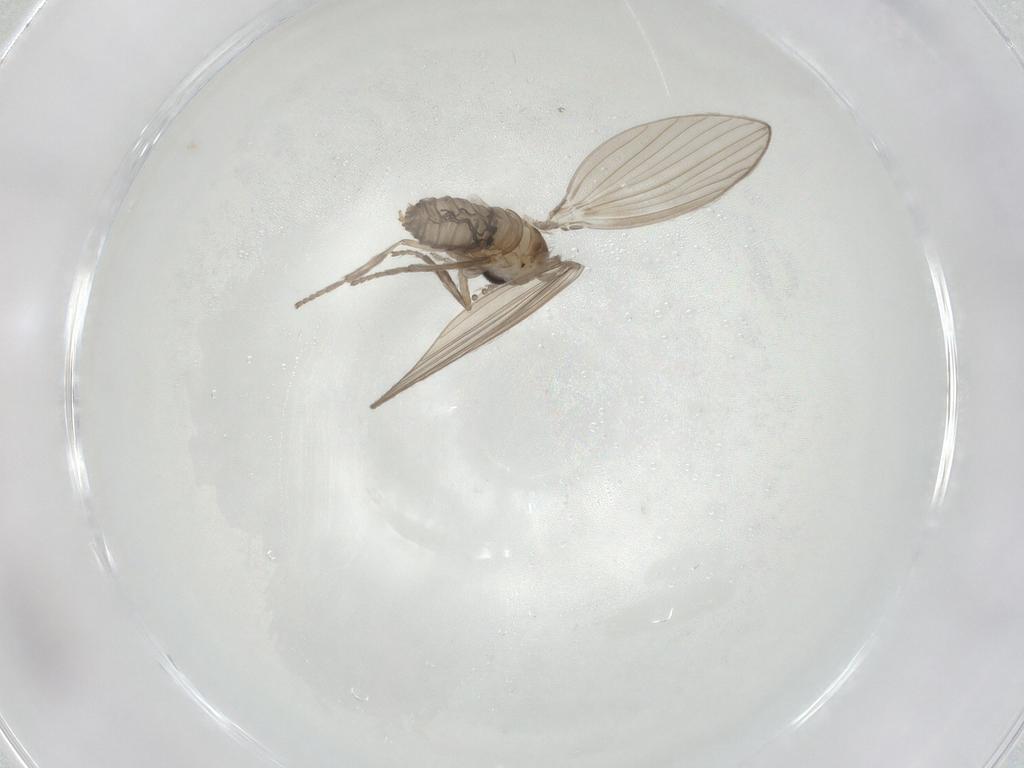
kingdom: Animalia
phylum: Arthropoda
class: Insecta
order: Diptera
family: Psychodidae
